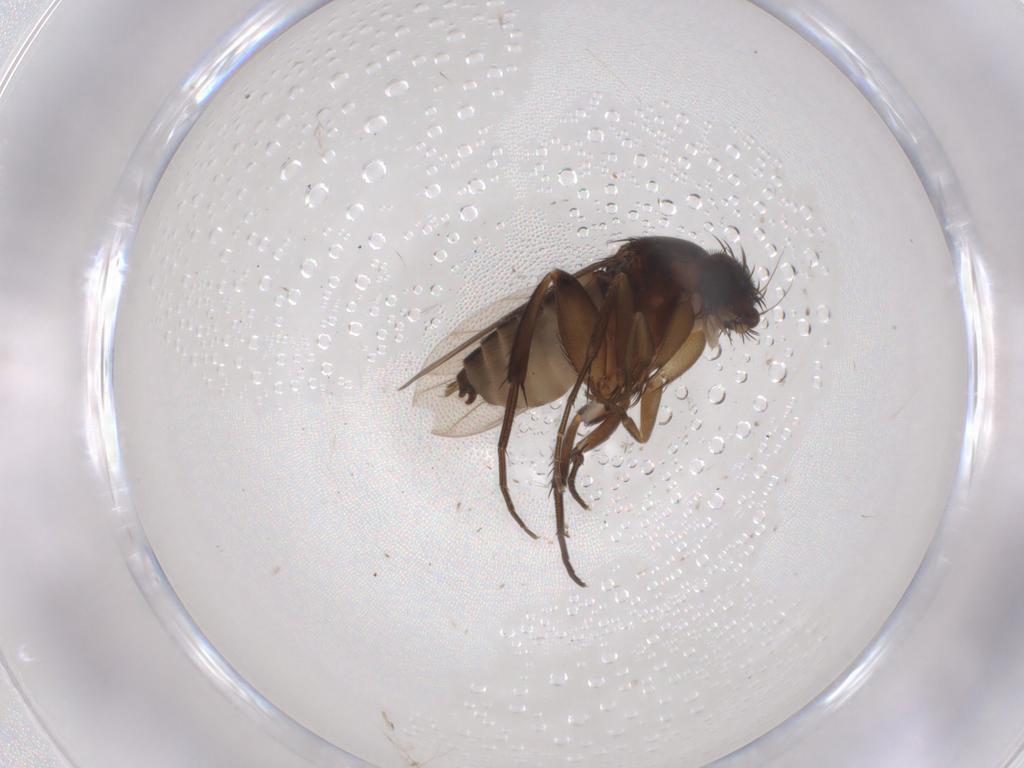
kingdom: Animalia
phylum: Arthropoda
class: Insecta
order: Diptera
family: Phoridae
